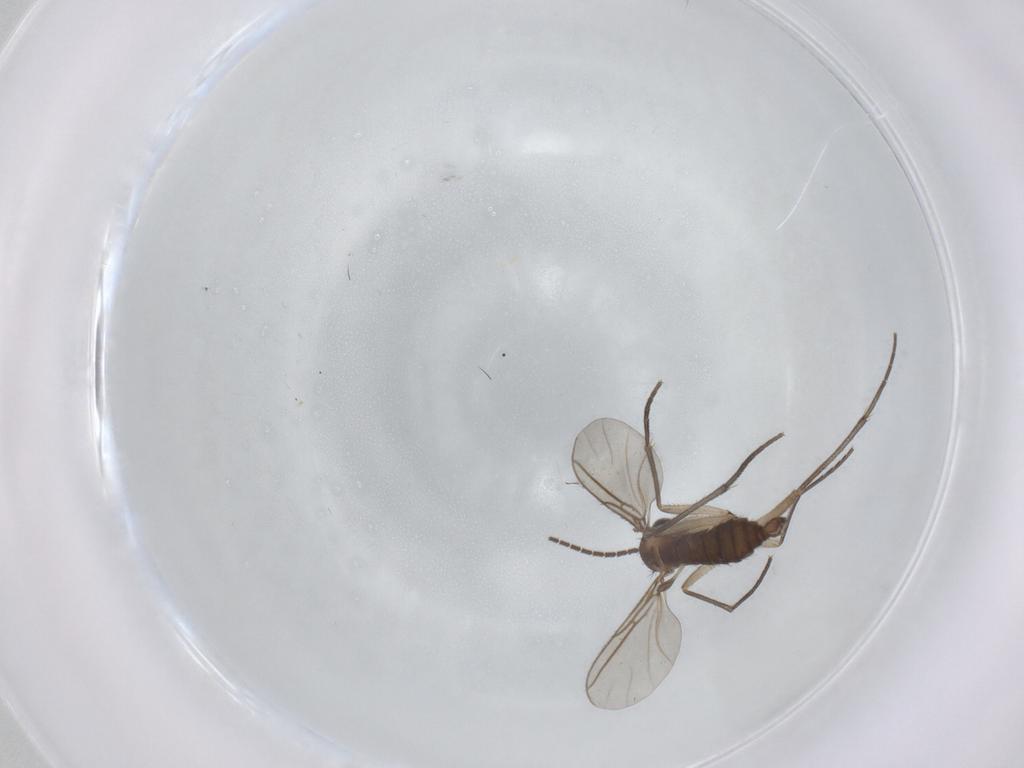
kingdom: Animalia
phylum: Arthropoda
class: Insecta
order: Diptera
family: Sciaridae
